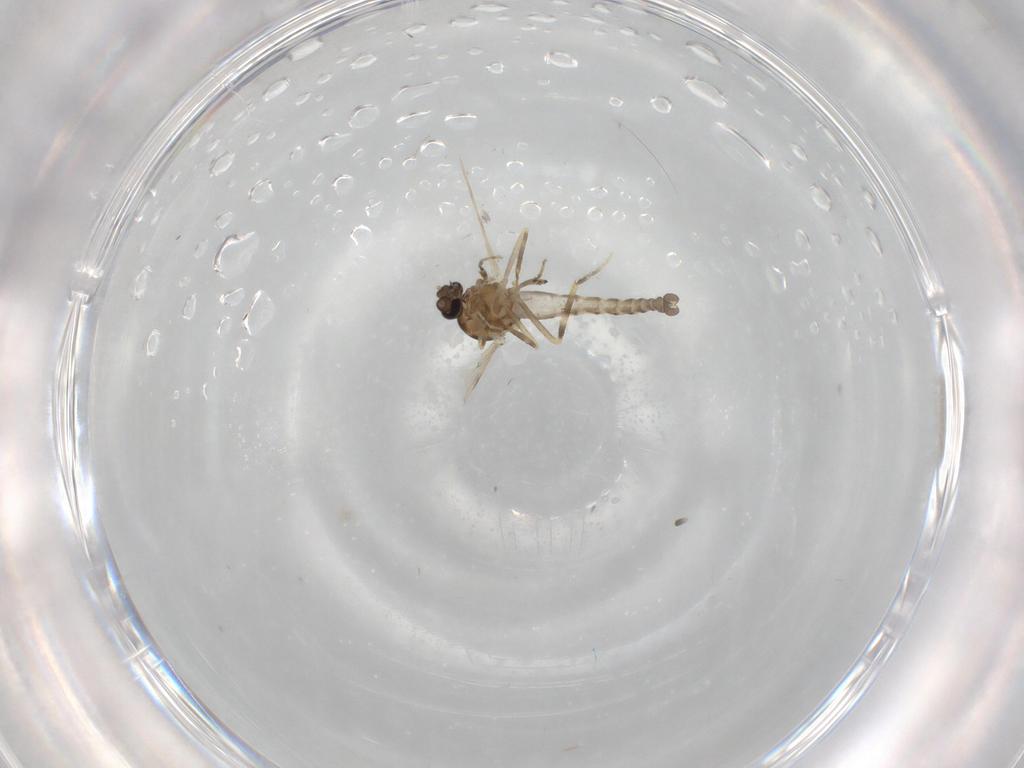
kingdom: Animalia
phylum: Arthropoda
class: Insecta
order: Diptera
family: Ceratopogonidae
